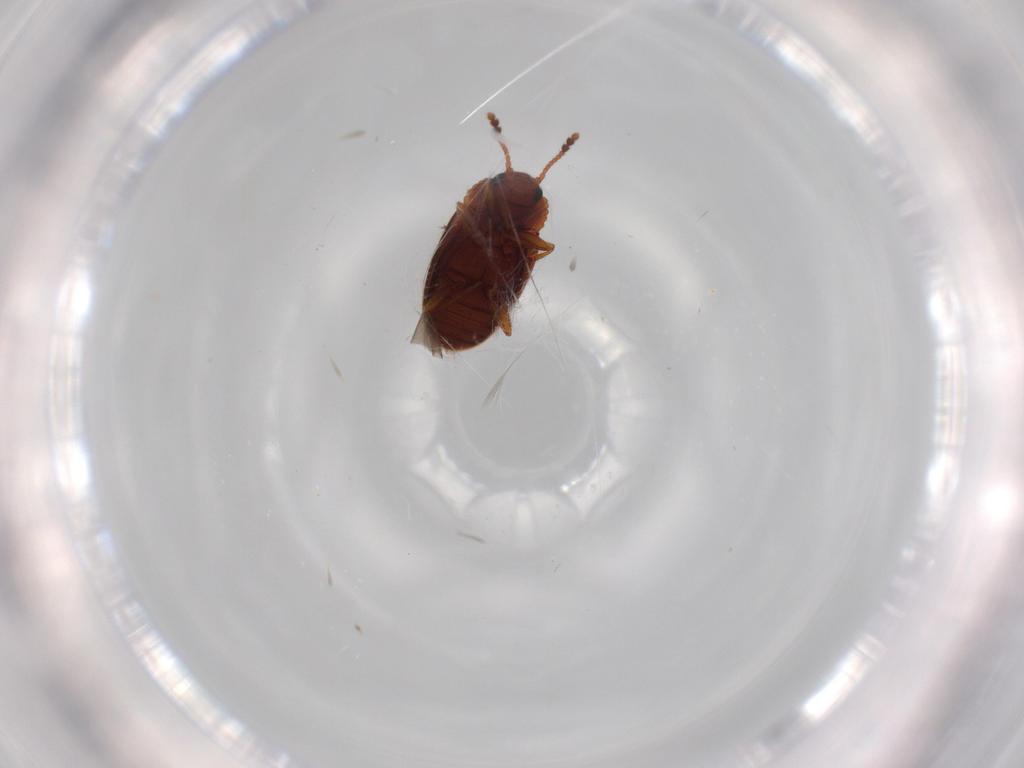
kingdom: Animalia
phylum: Arthropoda
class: Insecta
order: Coleoptera
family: Erotylidae
